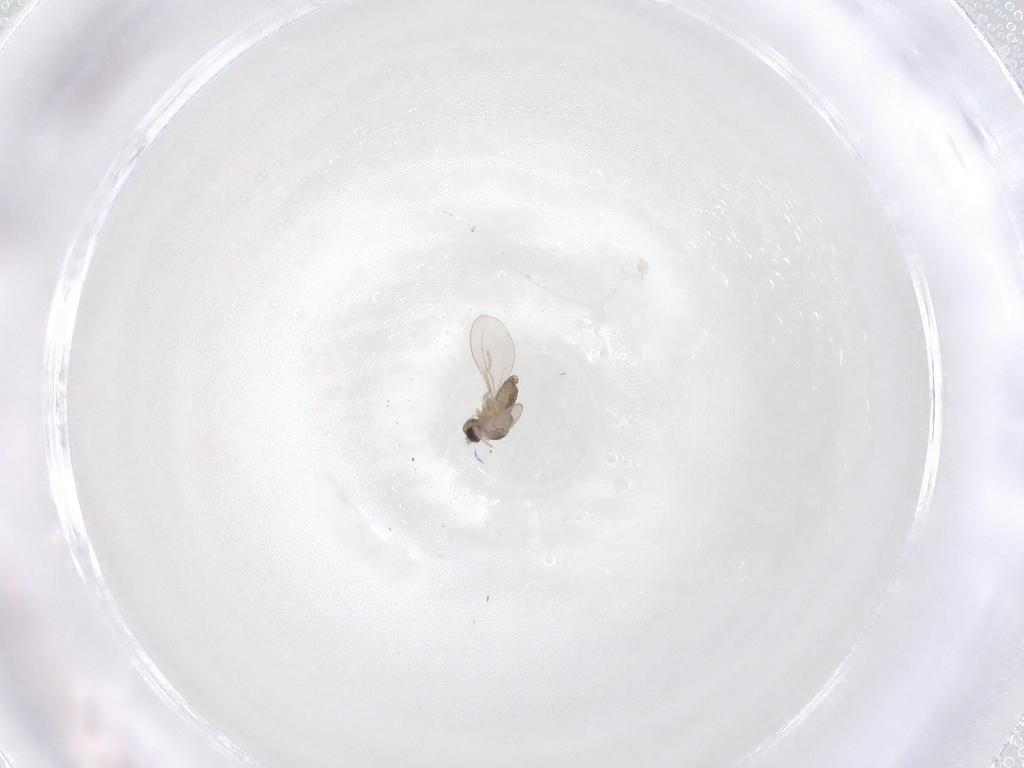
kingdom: Animalia
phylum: Arthropoda
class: Insecta
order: Diptera
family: Cecidomyiidae
